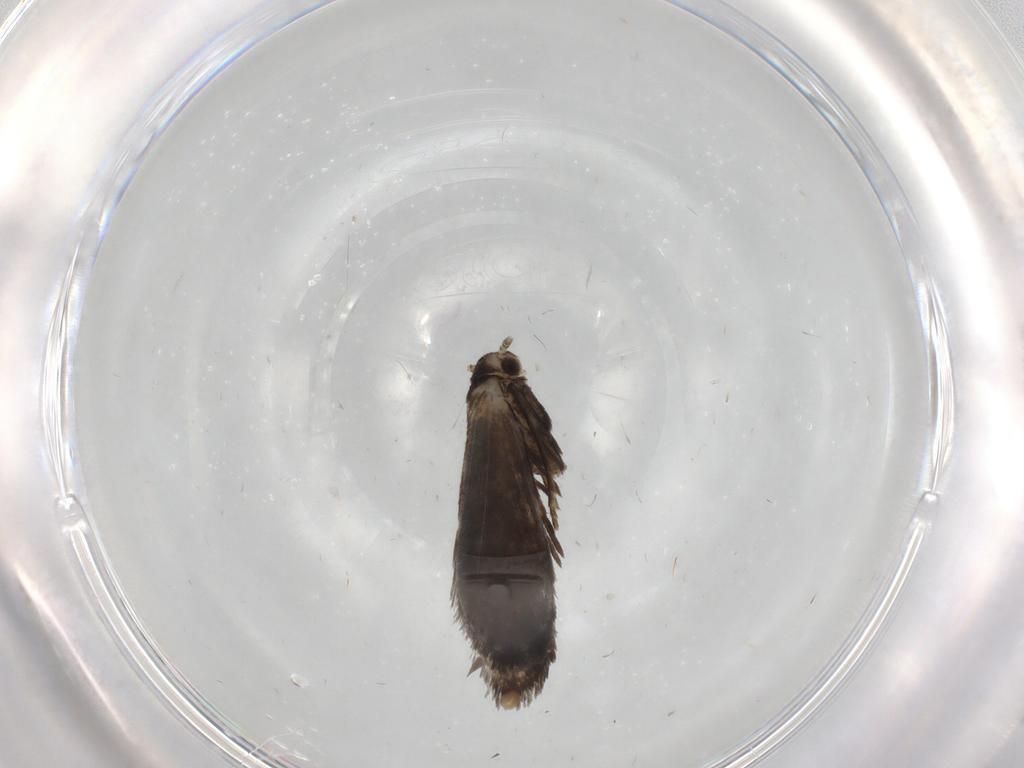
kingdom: Animalia
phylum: Arthropoda
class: Insecta
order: Lepidoptera
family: Nymphalidae
